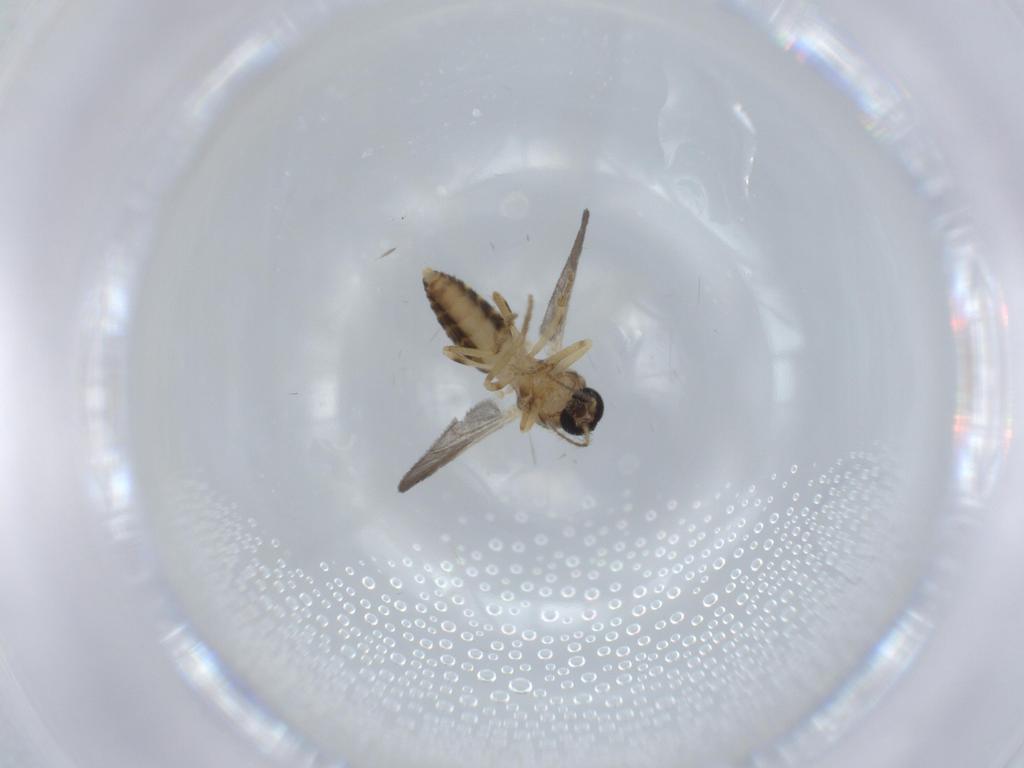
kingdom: Animalia
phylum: Arthropoda
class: Insecta
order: Diptera
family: Ceratopogonidae
